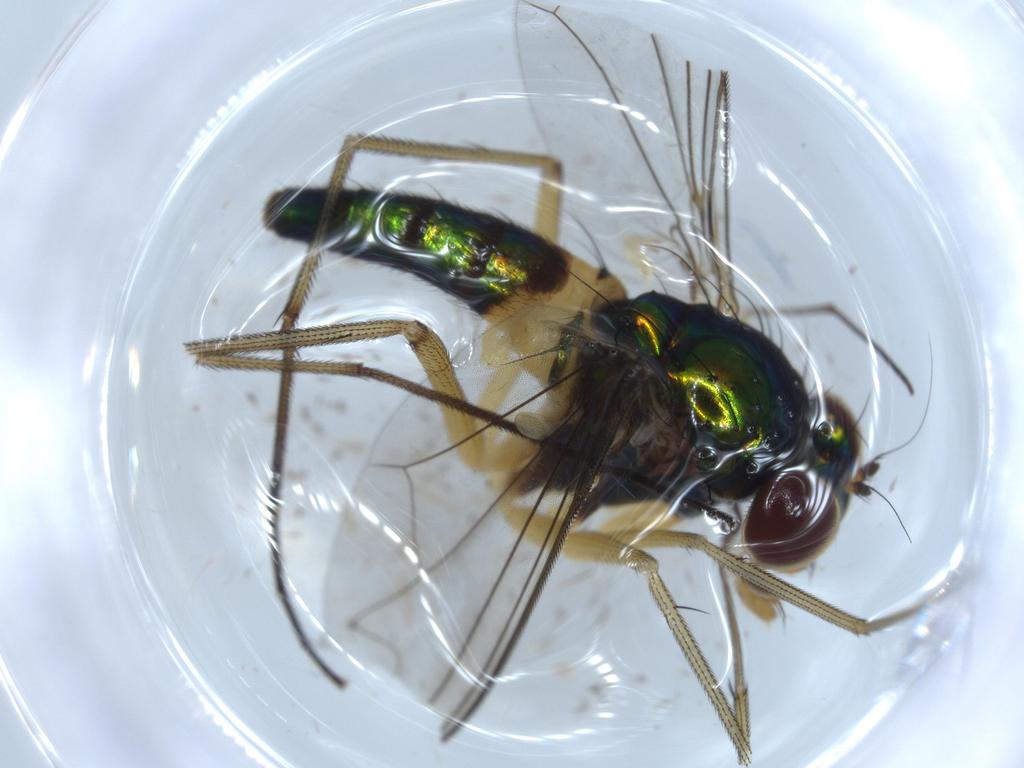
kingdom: Animalia
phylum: Arthropoda
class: Insecta
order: Diptera
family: Dolichopodidae
